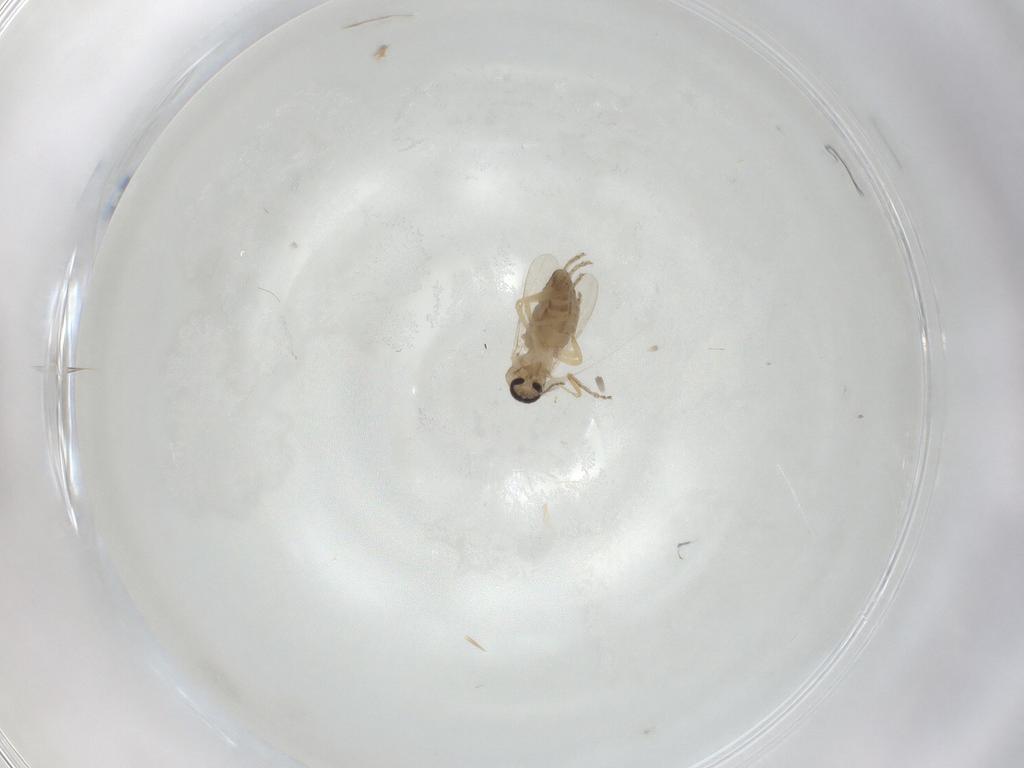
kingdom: Animalia
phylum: Arthropoda
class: Insecta
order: Diptera
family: Ceratopogonidae
